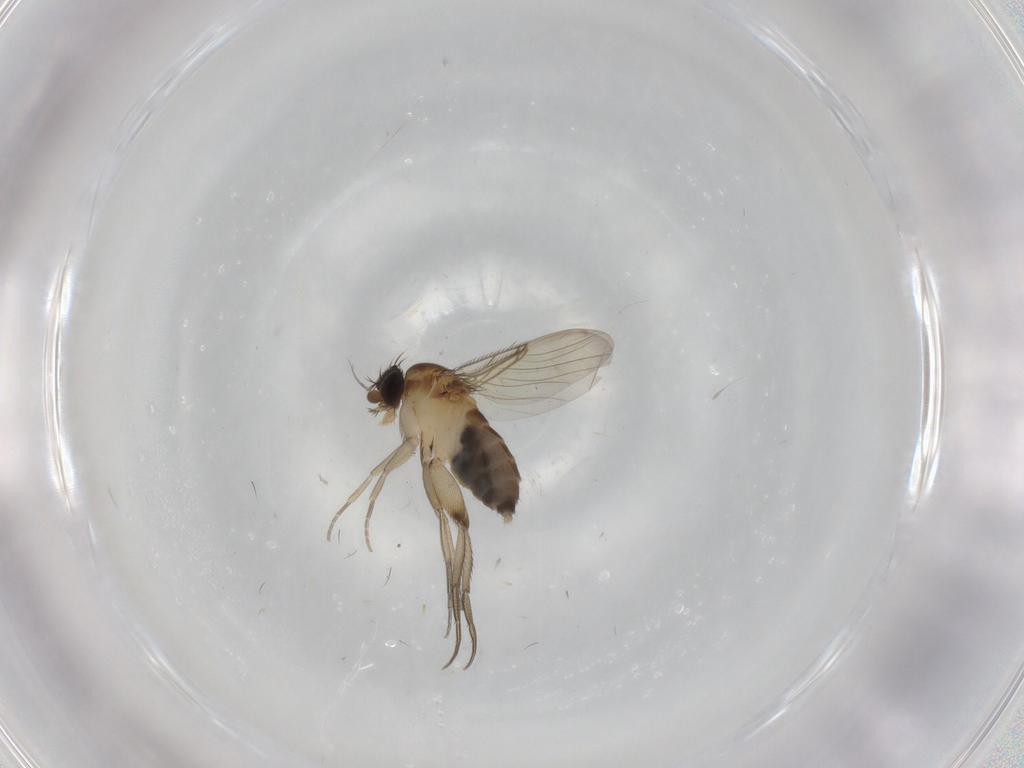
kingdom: Animalia
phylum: Arthropoda
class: Insecta
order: Diptera
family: Phoridae
